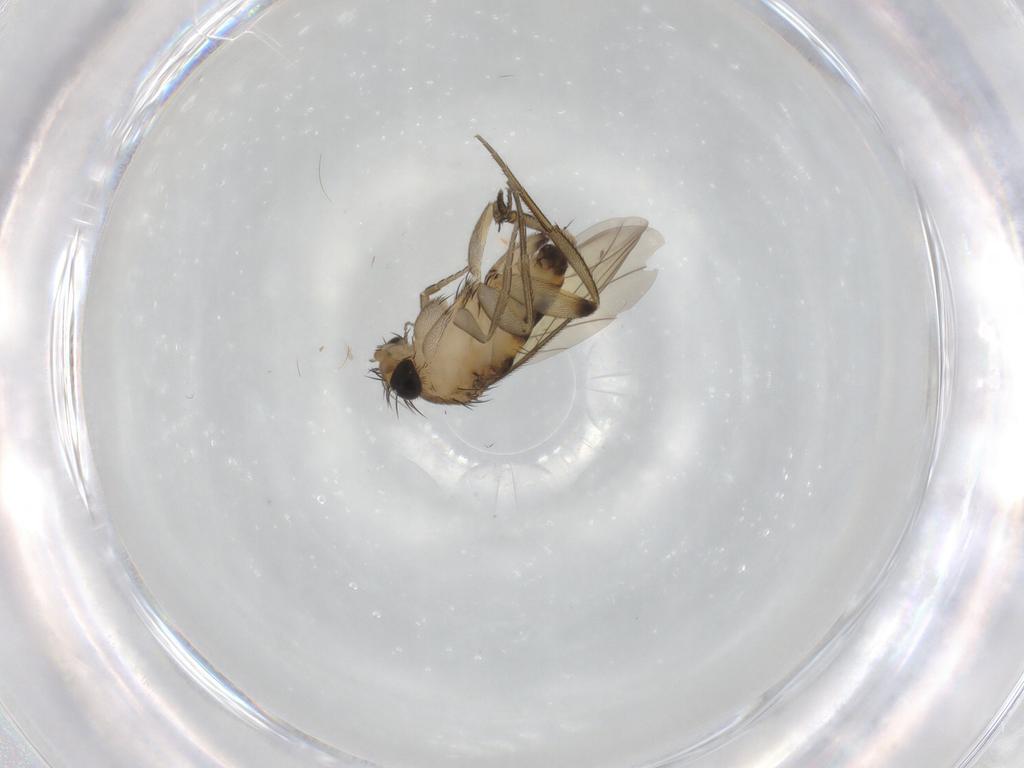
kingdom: Animalia
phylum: Arthropoda
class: Insecta
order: Diptera
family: Phoridae
